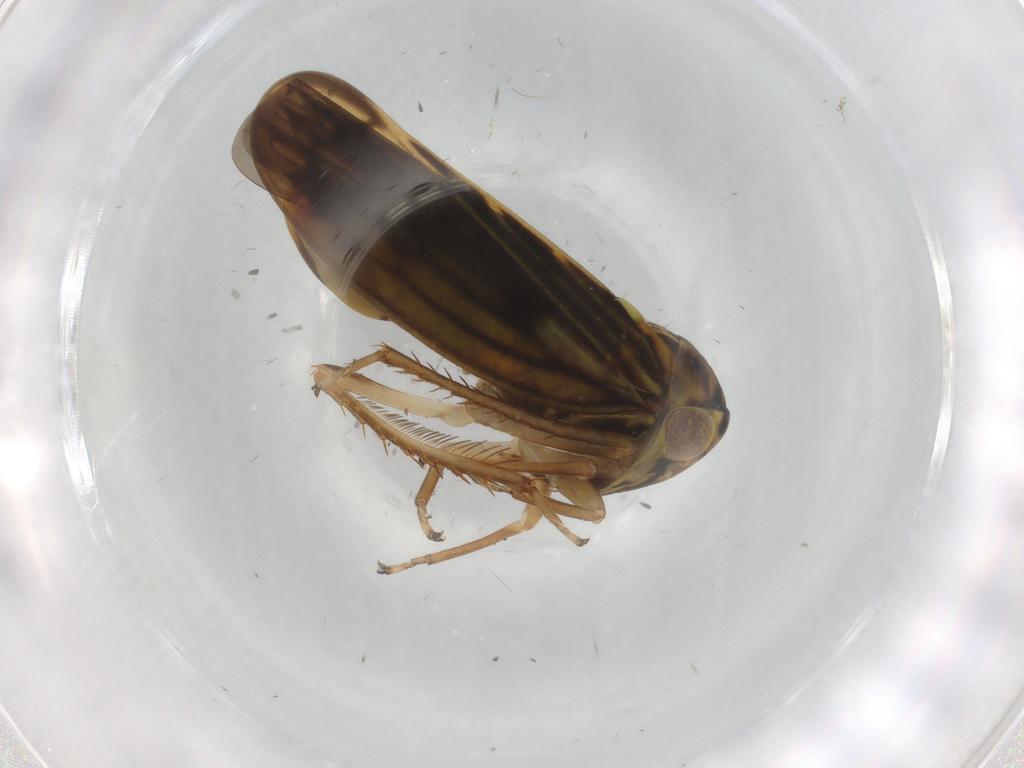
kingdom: Animalia
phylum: Arthropoda
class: Insecta
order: Hemiptera
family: Cicadellidae
